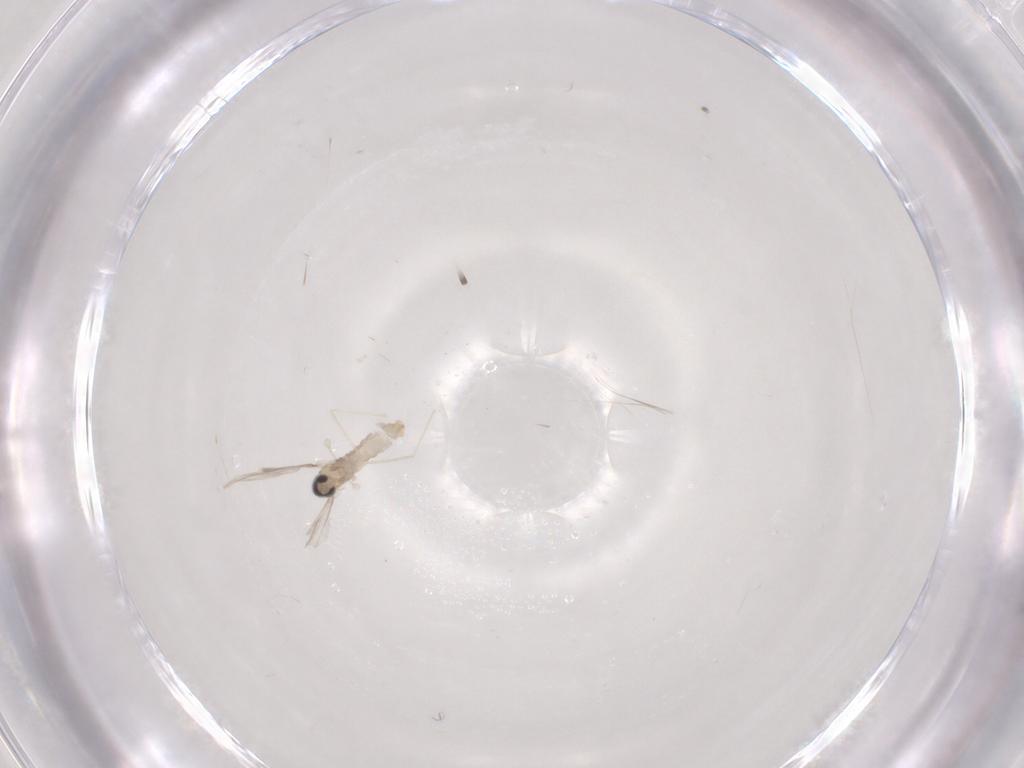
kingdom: Animalia
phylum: Arthropoda
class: Insecta
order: Diptera
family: Cecidomyiidae
